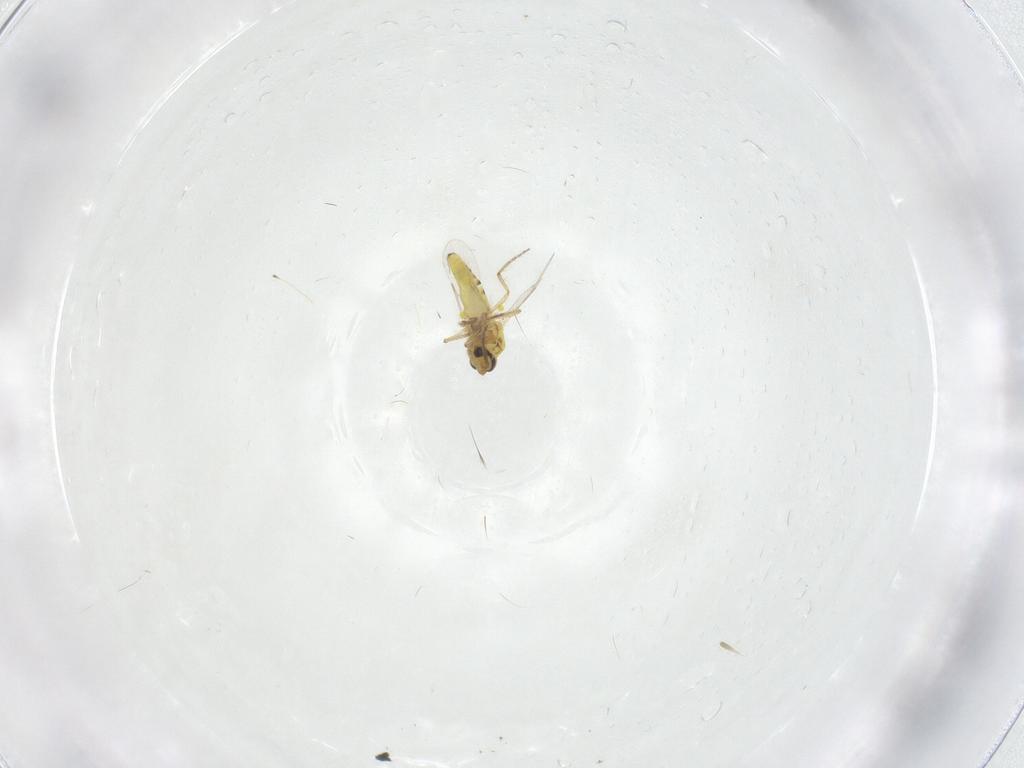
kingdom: Animalia
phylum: Arthropoda
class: Insecta
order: Diptera
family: Ceratopogonidae
